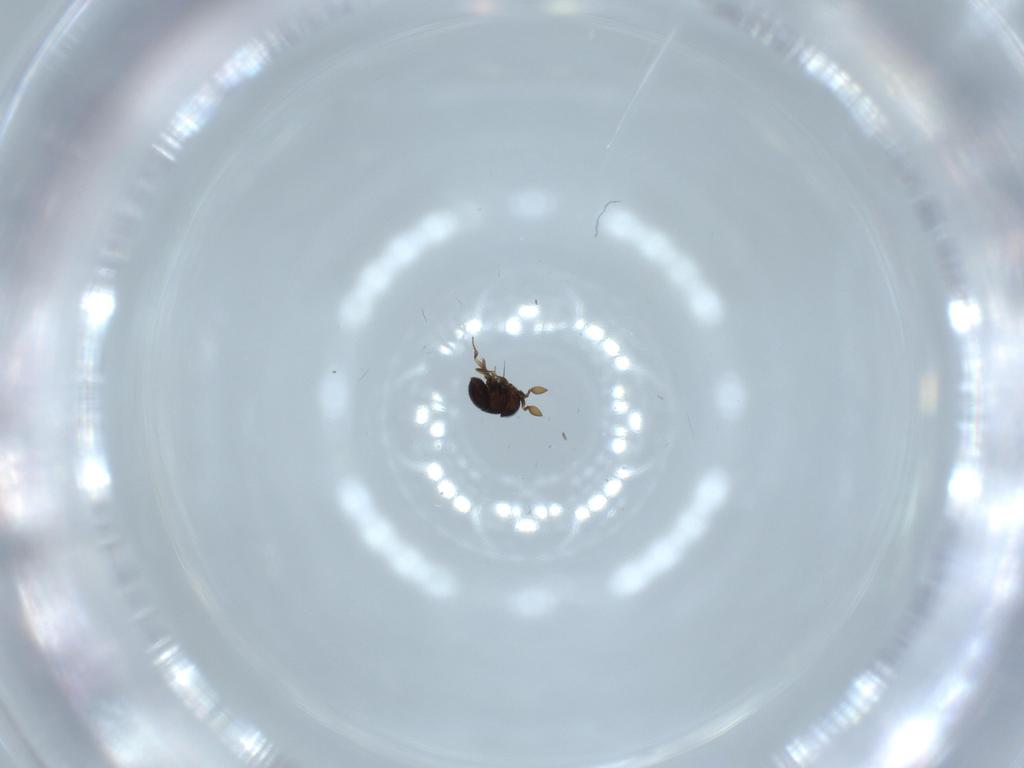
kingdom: Animalia
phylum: Arthropoda
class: Insecta
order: Hymenoptera
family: Scelionidae
